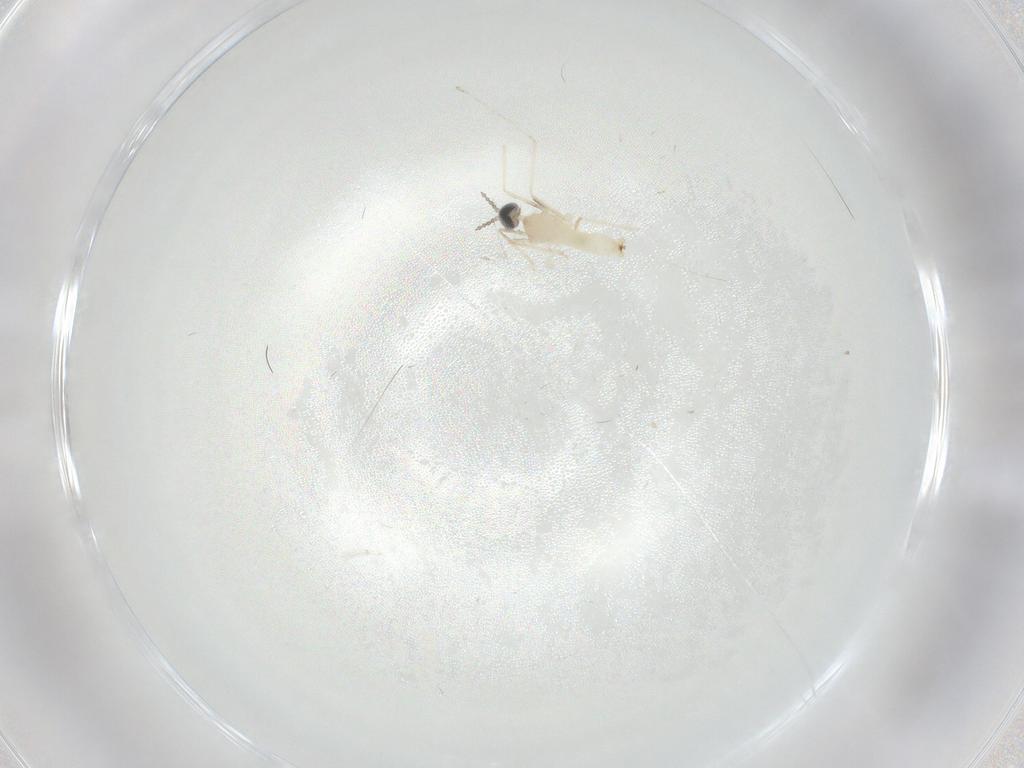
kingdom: Animalia
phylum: Arthropoda
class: Insecta
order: Diptera
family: Cecidomyiidae
